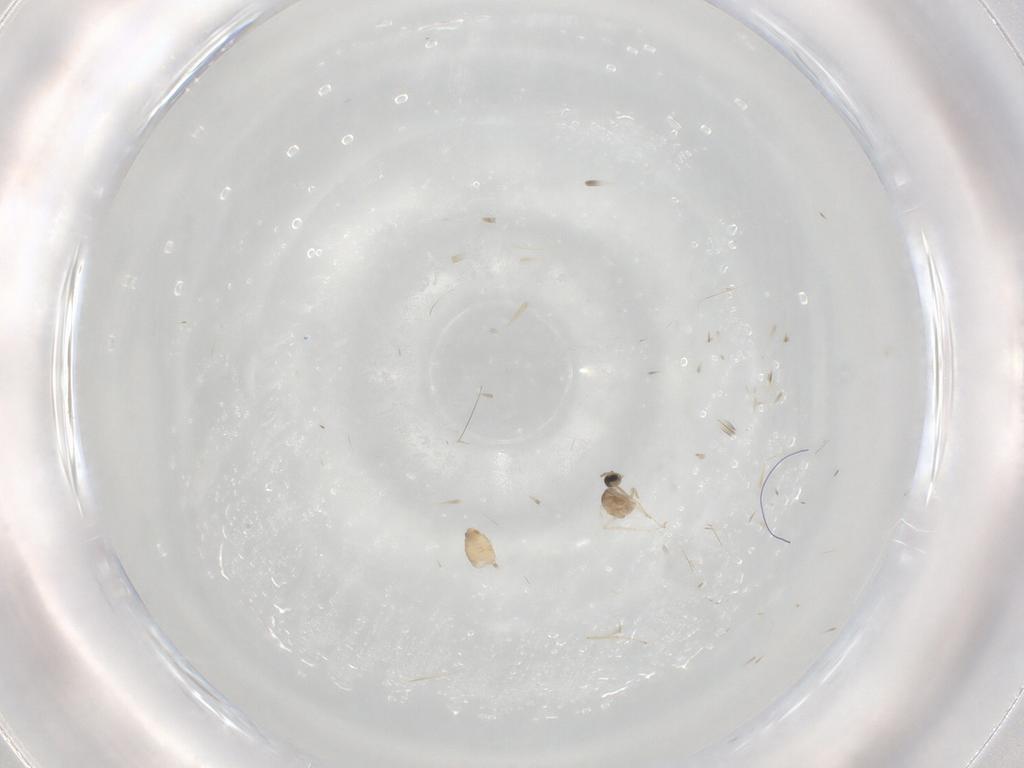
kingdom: Animalia
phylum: Arthropoda
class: Insecta
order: Diptera
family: Cecidomyiidae
